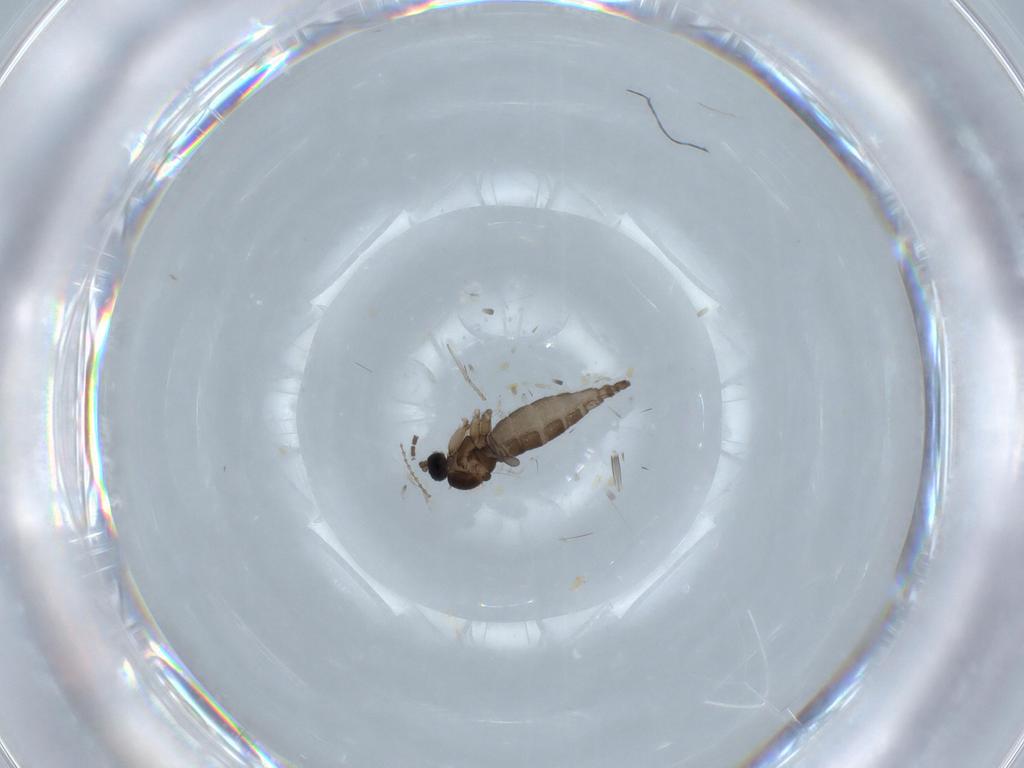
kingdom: Animalia
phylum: Arthropoda
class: Insecta
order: Diptera
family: Sciaridae
